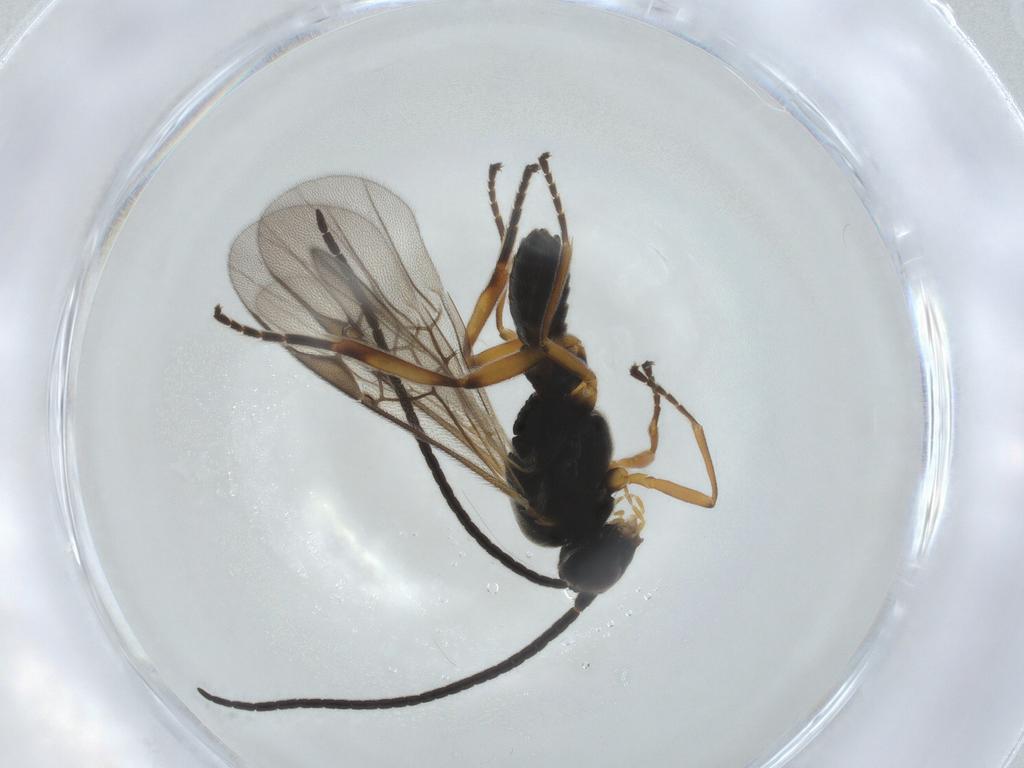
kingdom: Animalia
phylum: Arthropoda
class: Insecta
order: Hymenoptera
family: Braconidae
